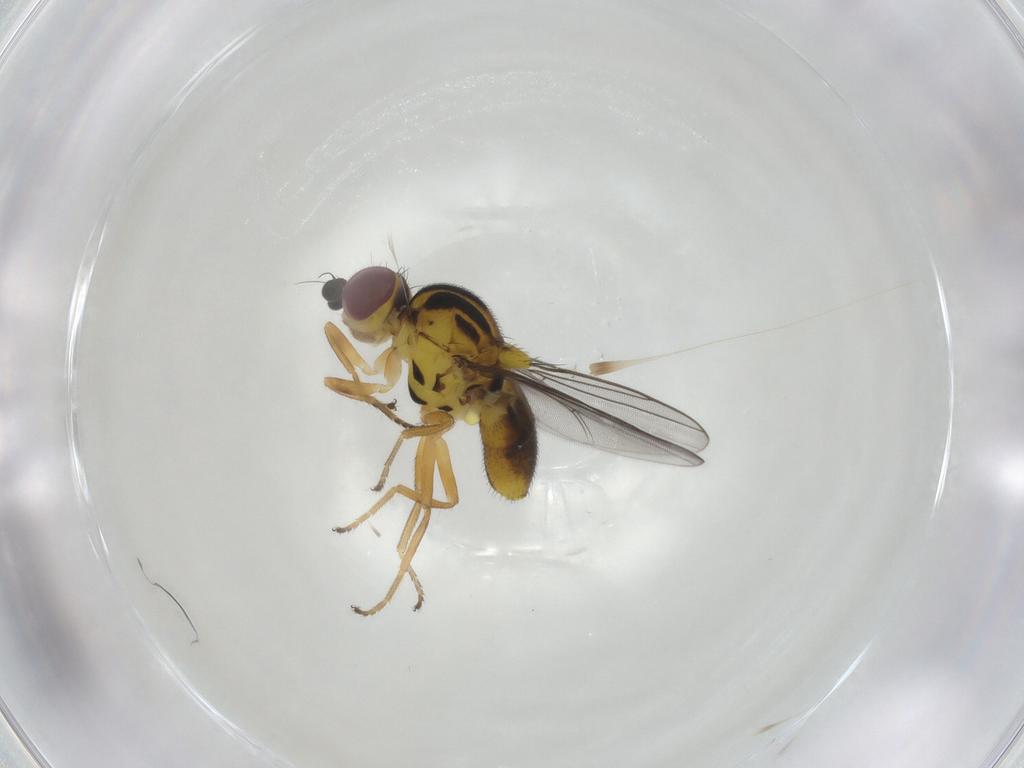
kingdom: Animalia
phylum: Arthropoda
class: Insecta
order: Diptera
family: Chloropidae
